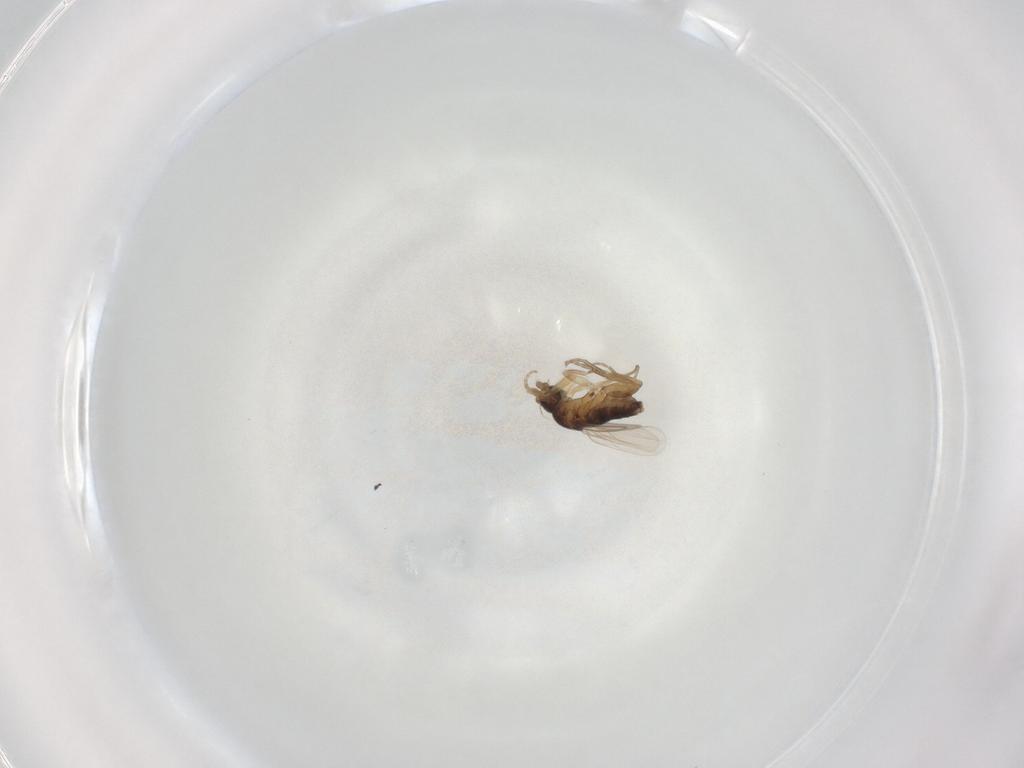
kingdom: Animalia
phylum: Arthropoda
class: Insecta
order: Diptera
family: Phoridae
